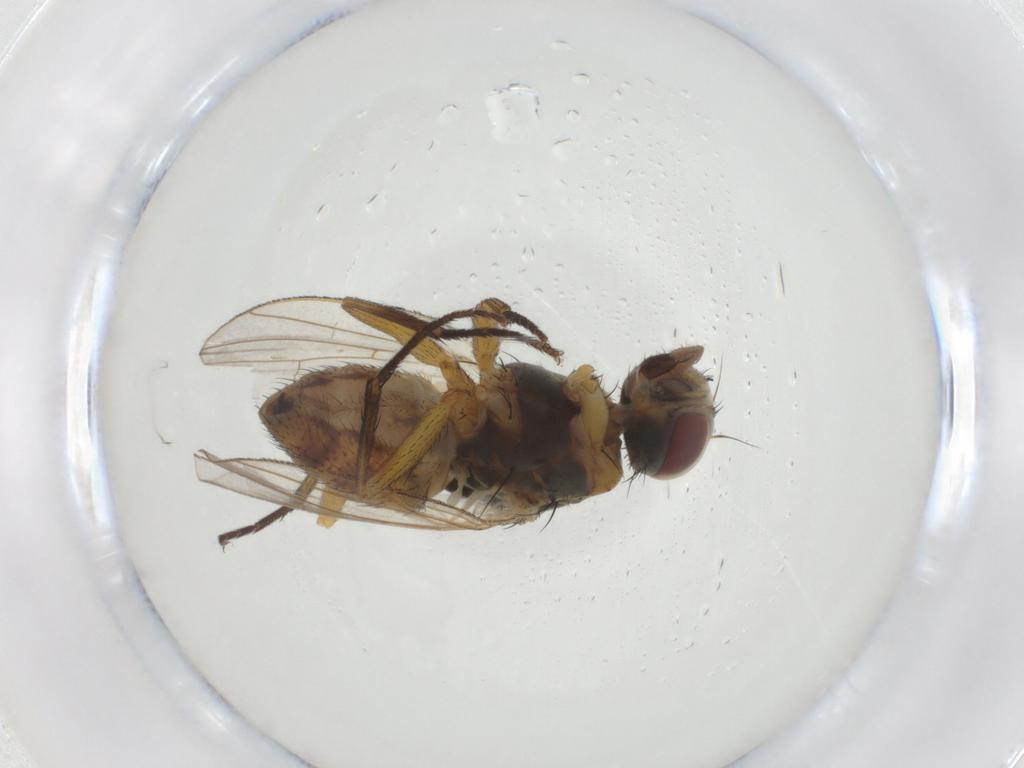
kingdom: Animalia
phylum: Arthropoda
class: Insecta
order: Diptera
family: Muscidae
